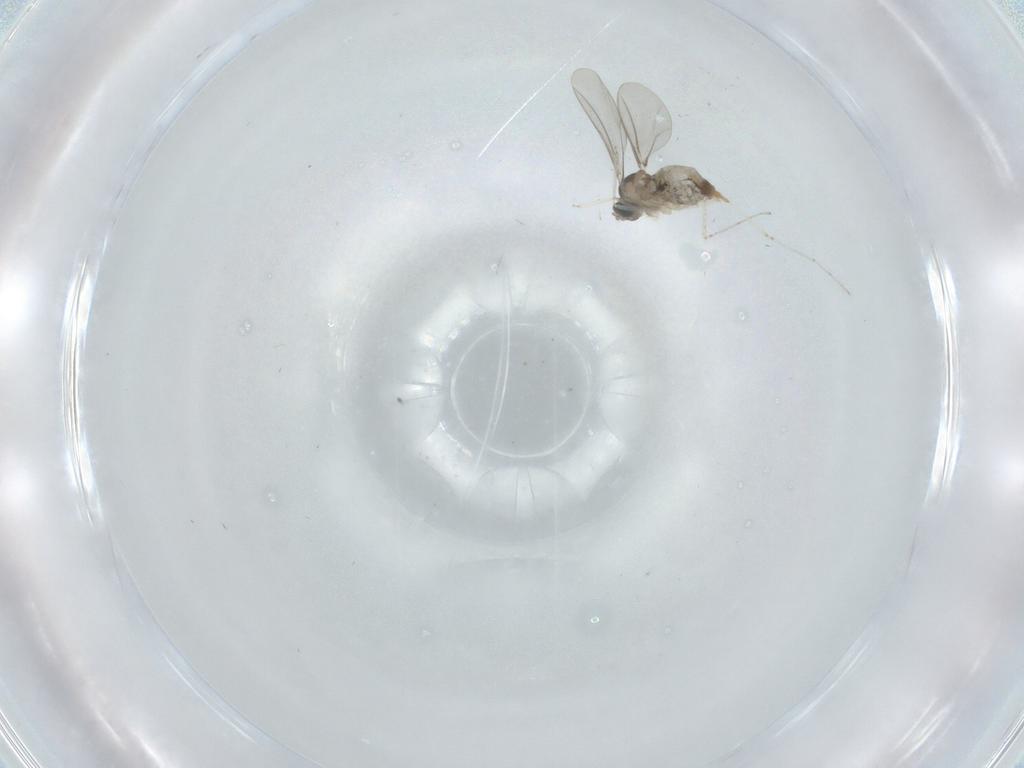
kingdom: Animalia
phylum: Arthropoda
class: Insecta
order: Diptera
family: Cecidomyiidae
